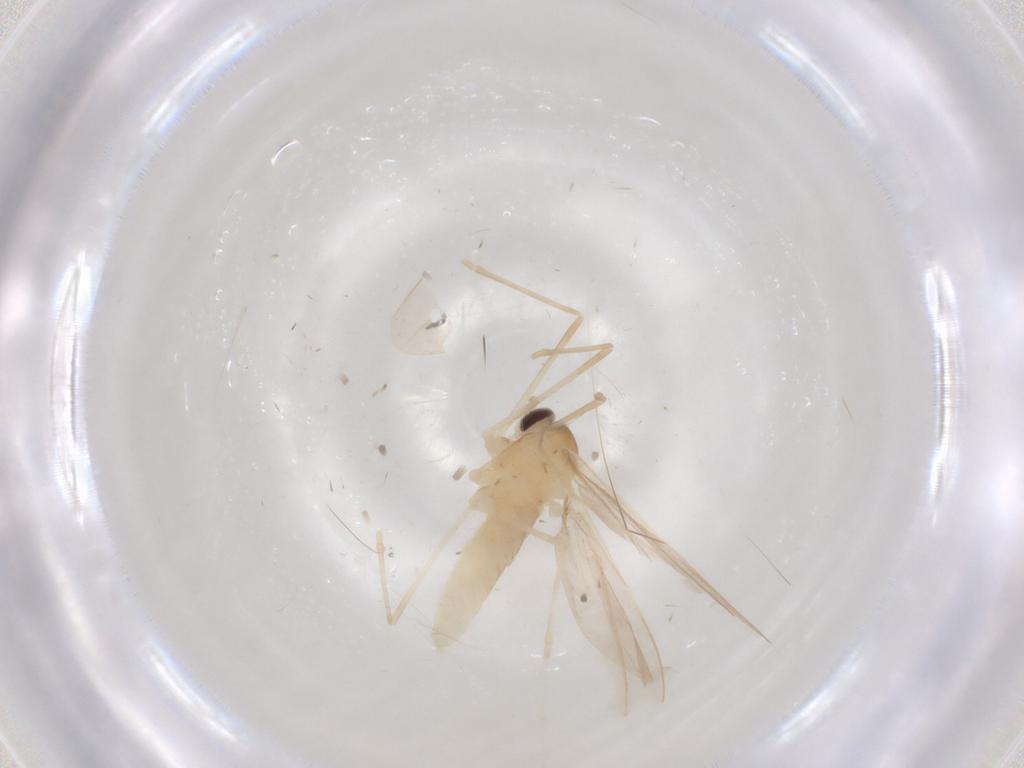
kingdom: Animalia
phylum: Arthropoda
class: Insecta
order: Diptera
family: Cecidomyiidae
